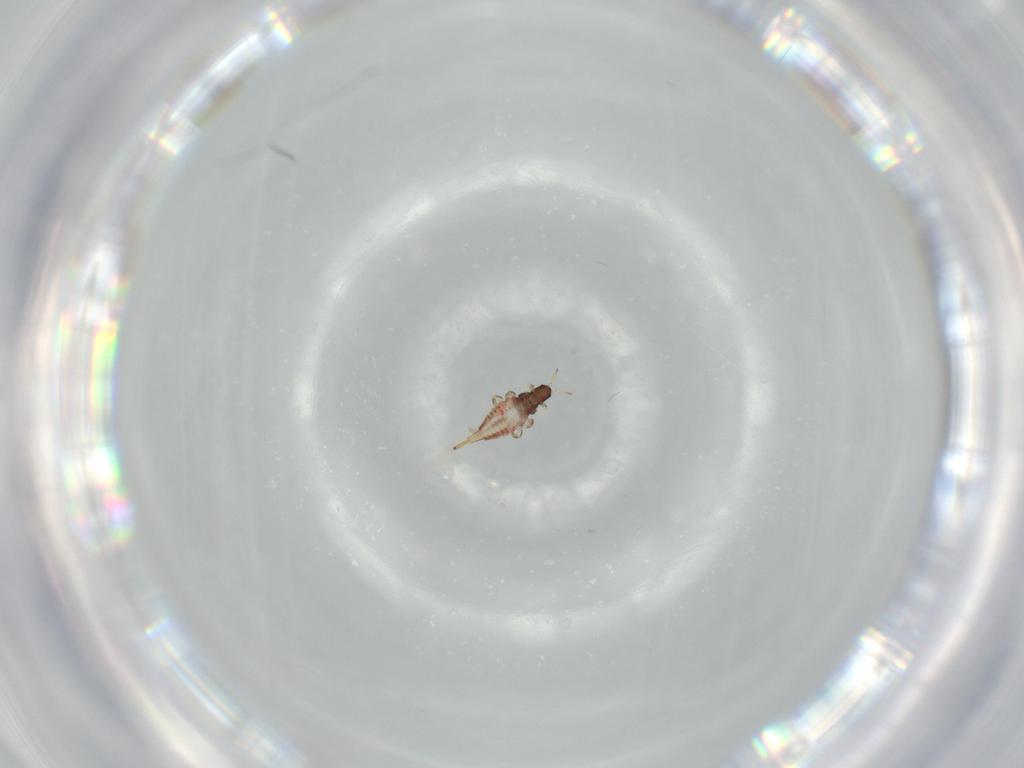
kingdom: Animalia
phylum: Arthropoda
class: Insecta
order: Thysanoptera
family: Phlaeothripidae
